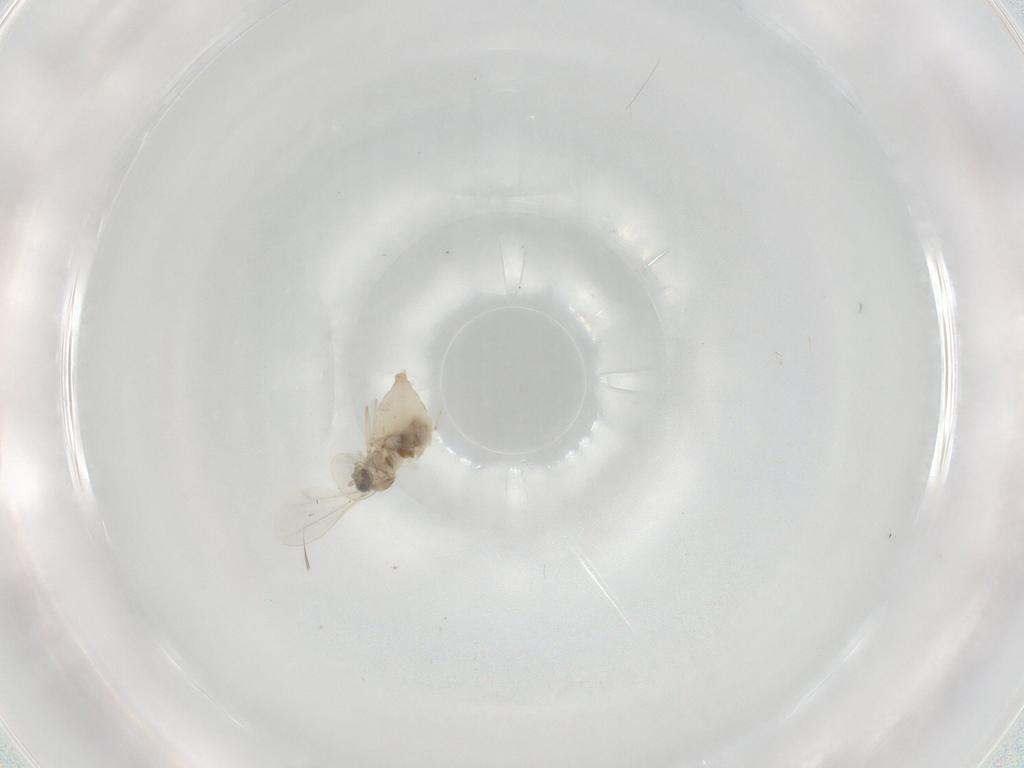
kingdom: Animalia
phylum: Arthropoda
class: Insecta
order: Diptera
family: Cecidomyiidae
